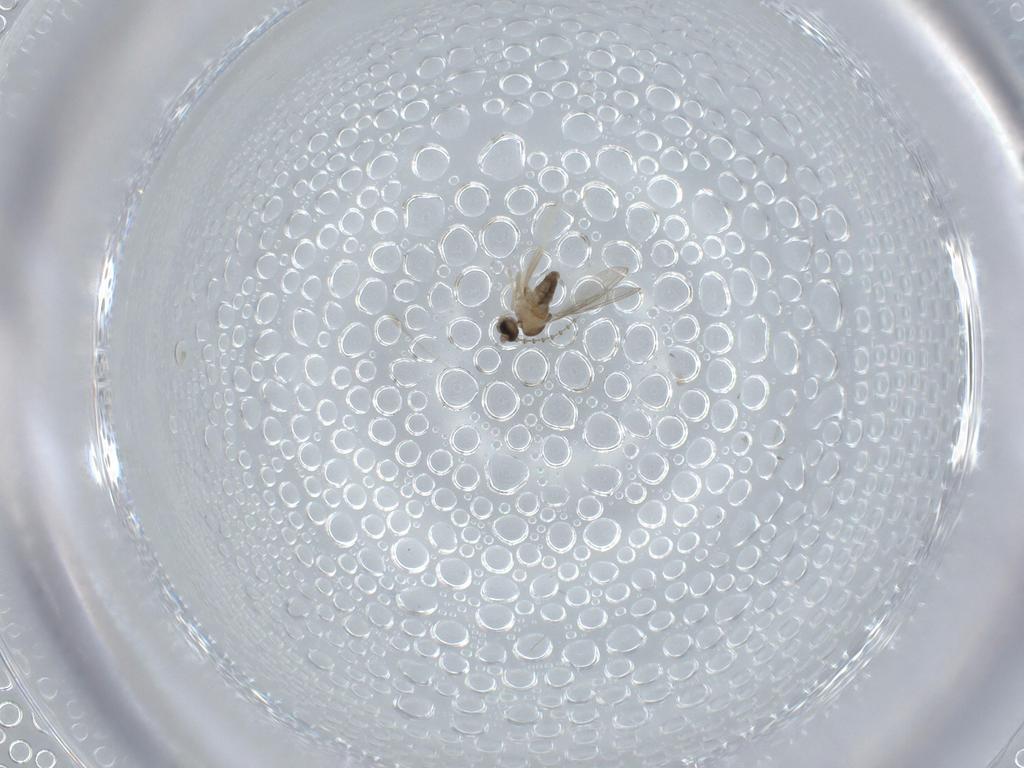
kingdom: Animalia
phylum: Arthropoda
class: Insecta
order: Diptera
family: Cecidomyiidae
